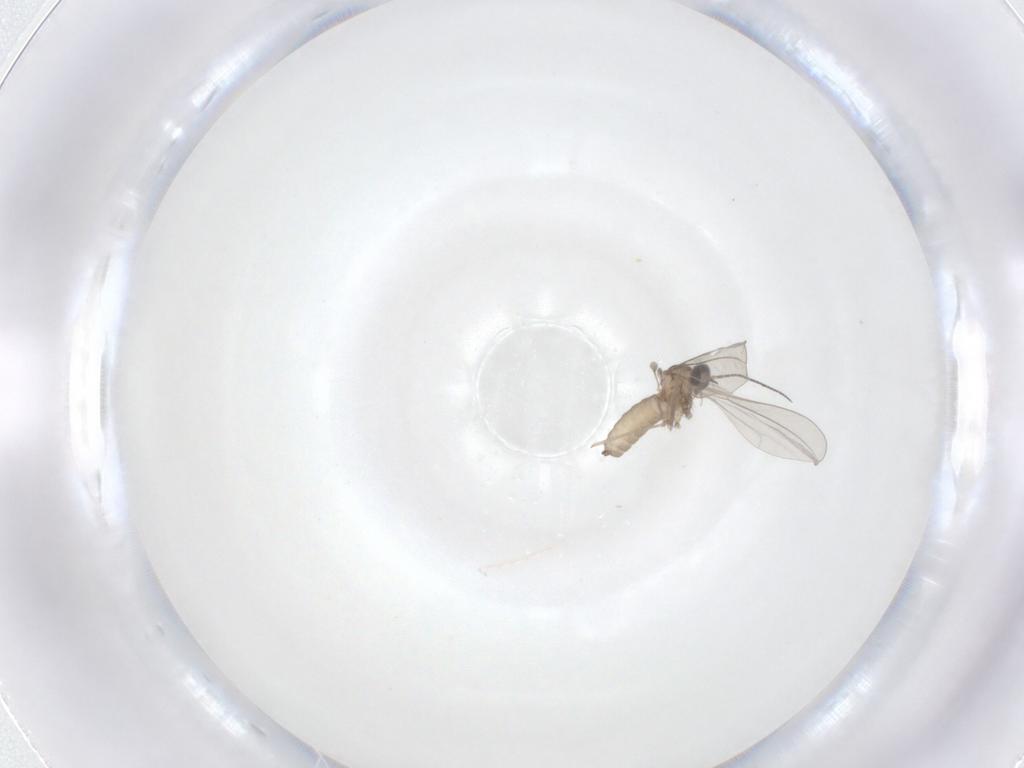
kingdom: Animalia
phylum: Arthropoda
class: Insecta
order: Diptera
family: Cecidomyiidae
